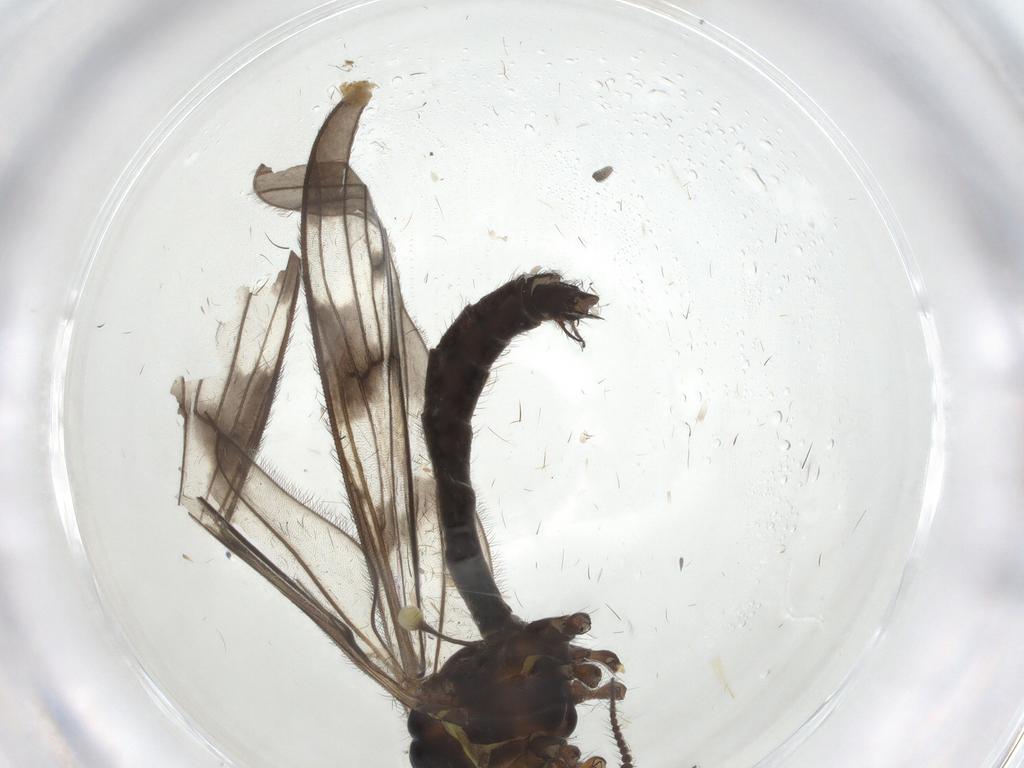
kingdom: Animalia
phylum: Arthropoda
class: Insecta
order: Diptera
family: Limoniidae
